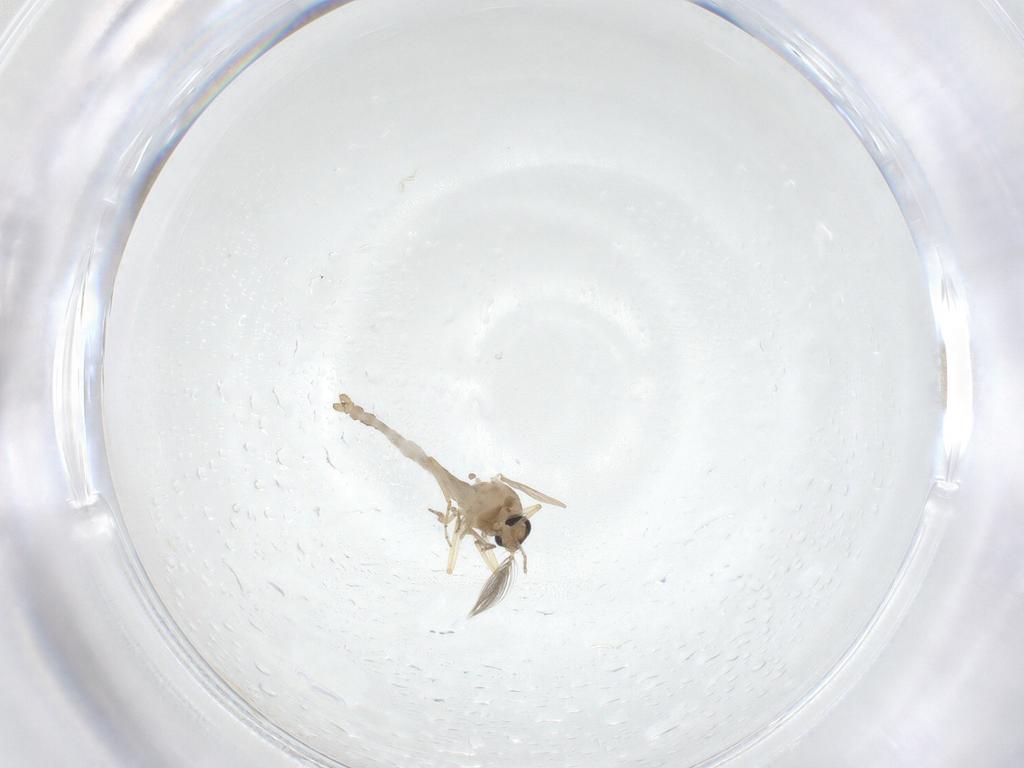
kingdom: Animalia
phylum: Arthropoda
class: Insecta
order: Diptera
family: Ceratopogonidae
